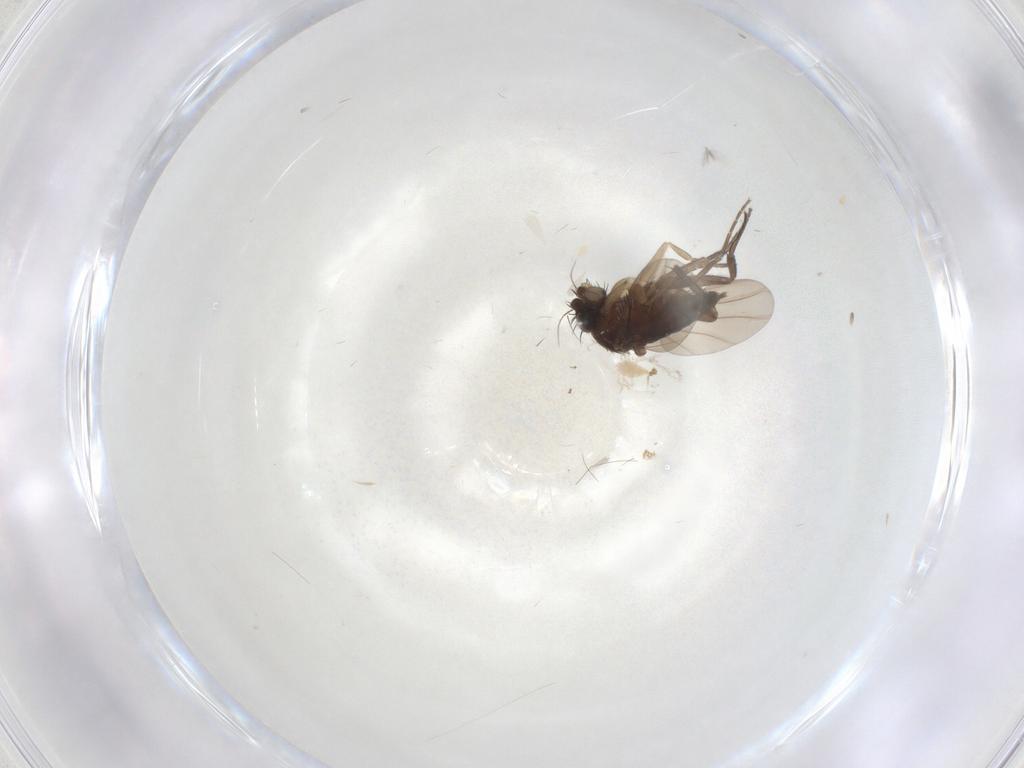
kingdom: Animalia
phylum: Arthropoda
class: Insecta
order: Diptera
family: Phoridae
